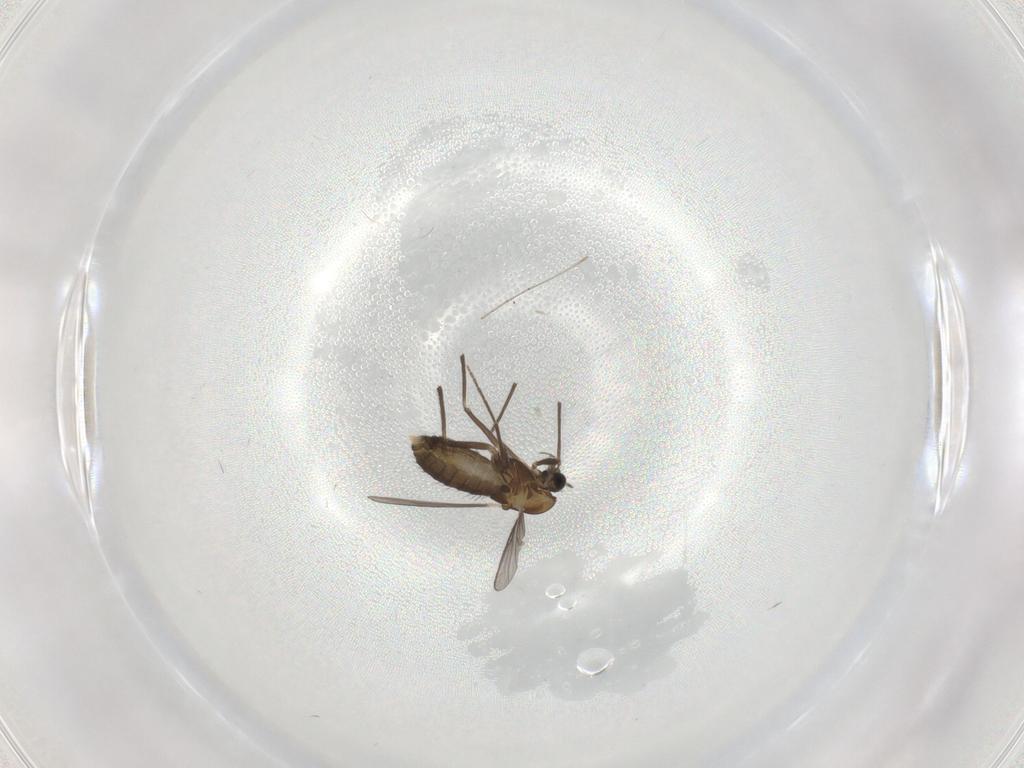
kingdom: Animalia
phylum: Arthropoda
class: Insecta
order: Diptera
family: Chironomidae
